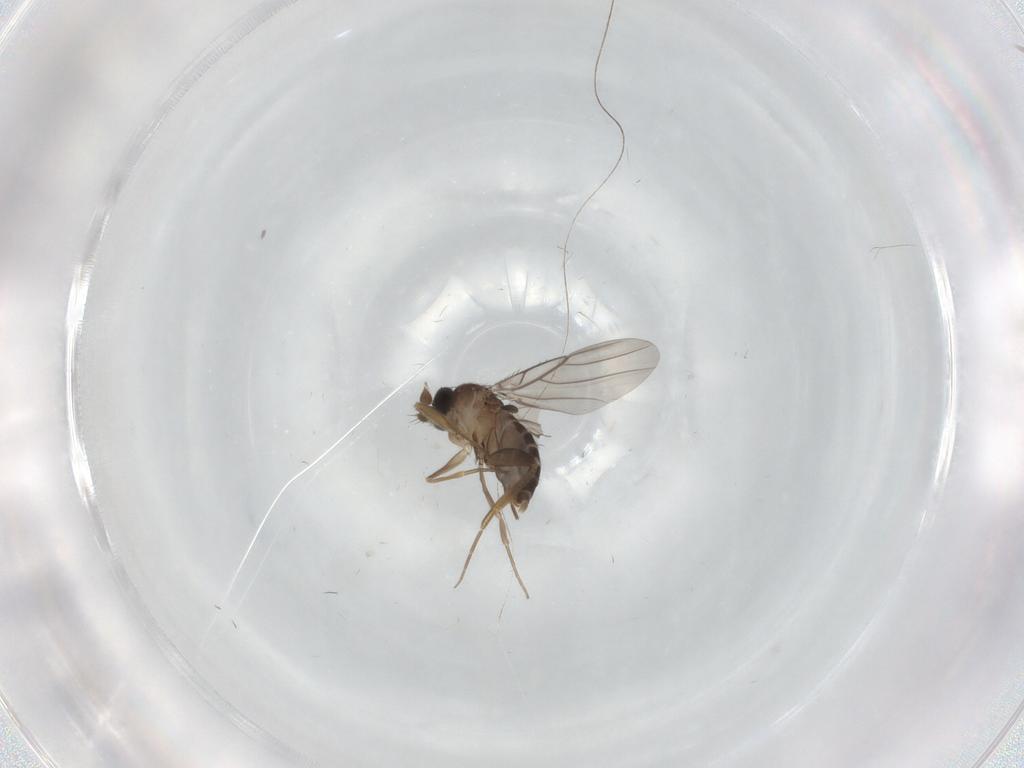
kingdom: Animalia
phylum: Arthropoda
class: Insecta
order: Diptera
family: Phoridae
